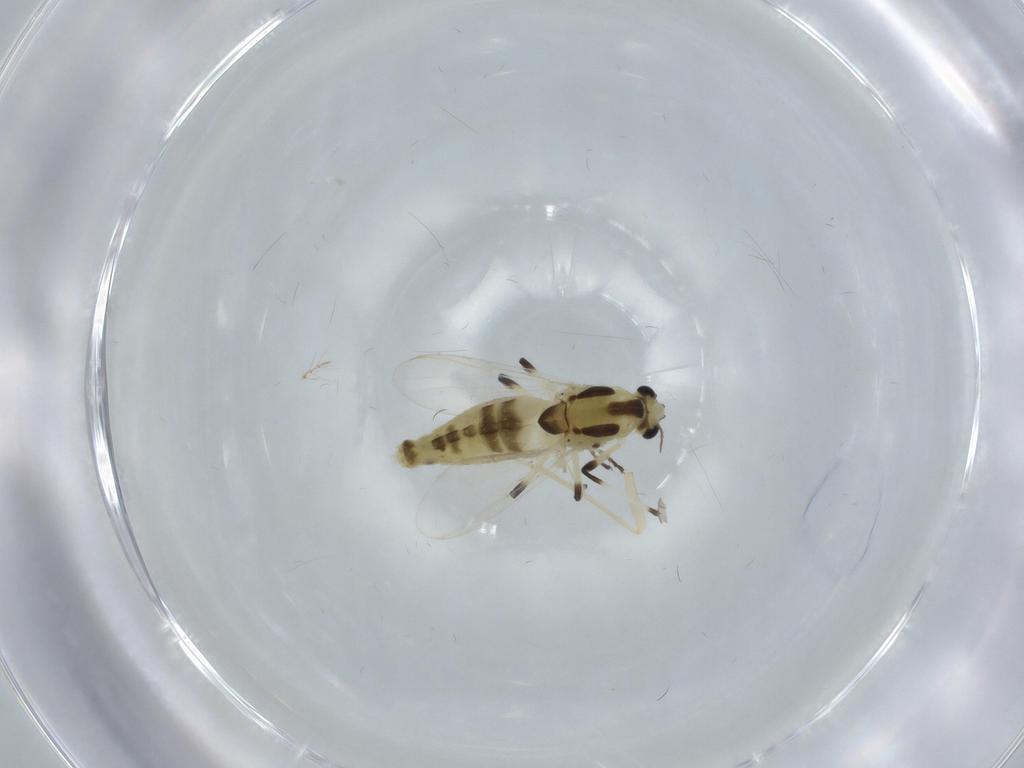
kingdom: Animalia
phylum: Arthropoda
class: Insecta
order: Diptera
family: Chironomidae
